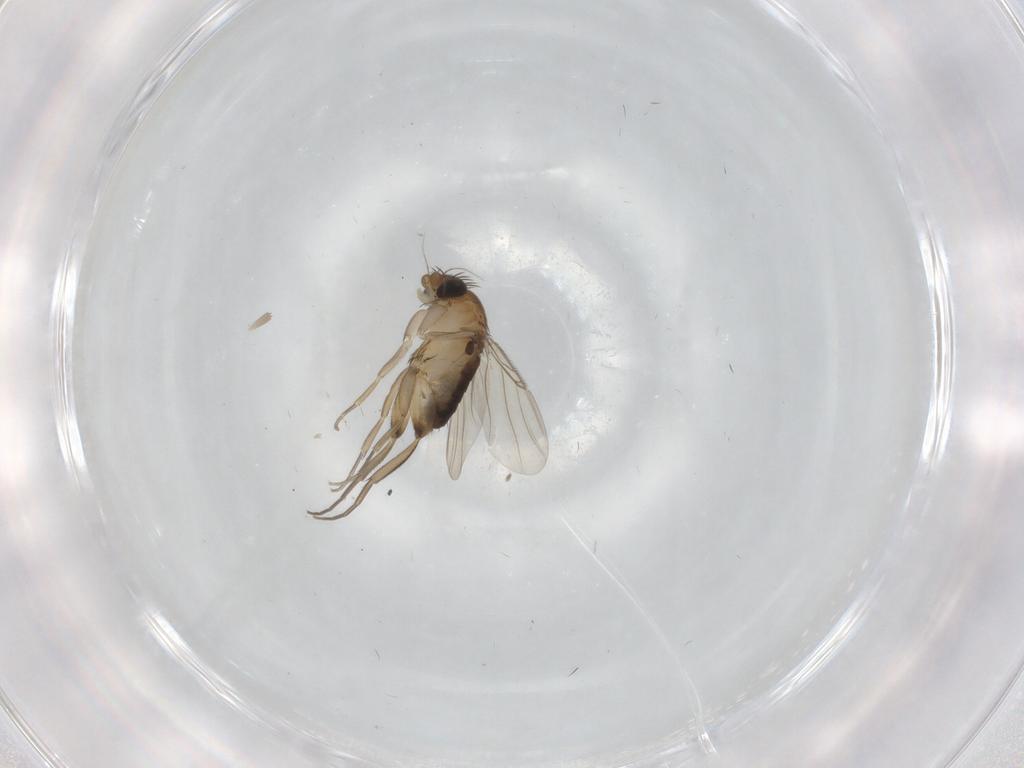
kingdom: Animalia
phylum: Arthropoda
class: Insecta
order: Diptera
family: Phoridae
